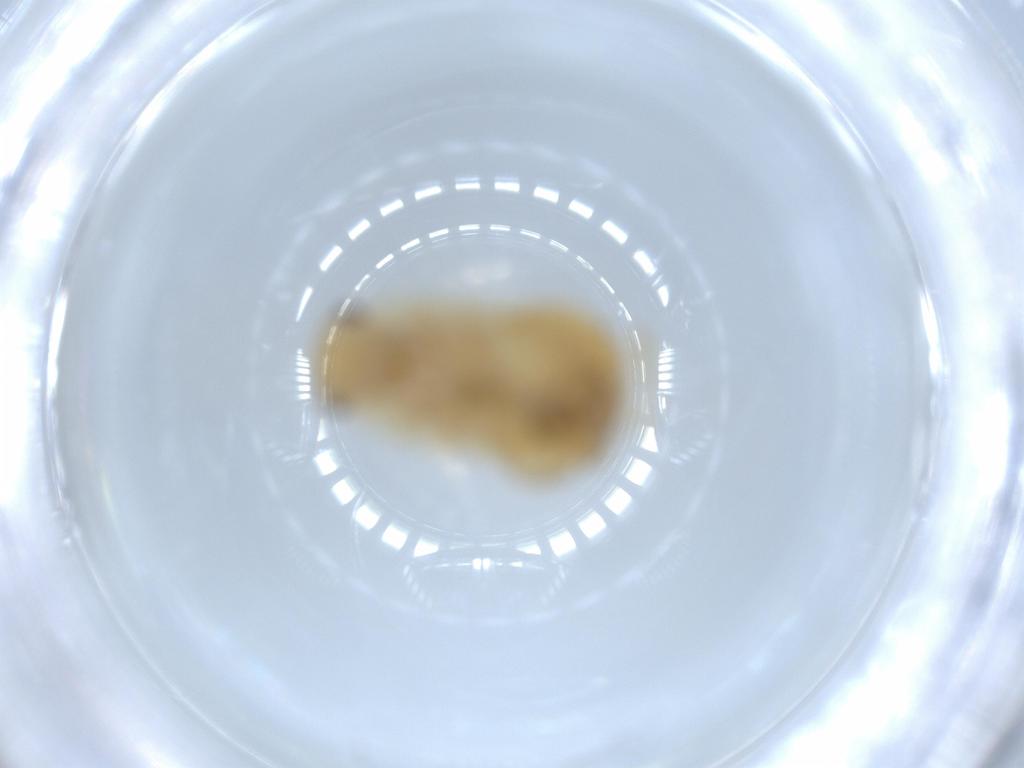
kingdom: Animalia
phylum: Arthropoda
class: Insecta
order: Blattodea
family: Ectobiidae
